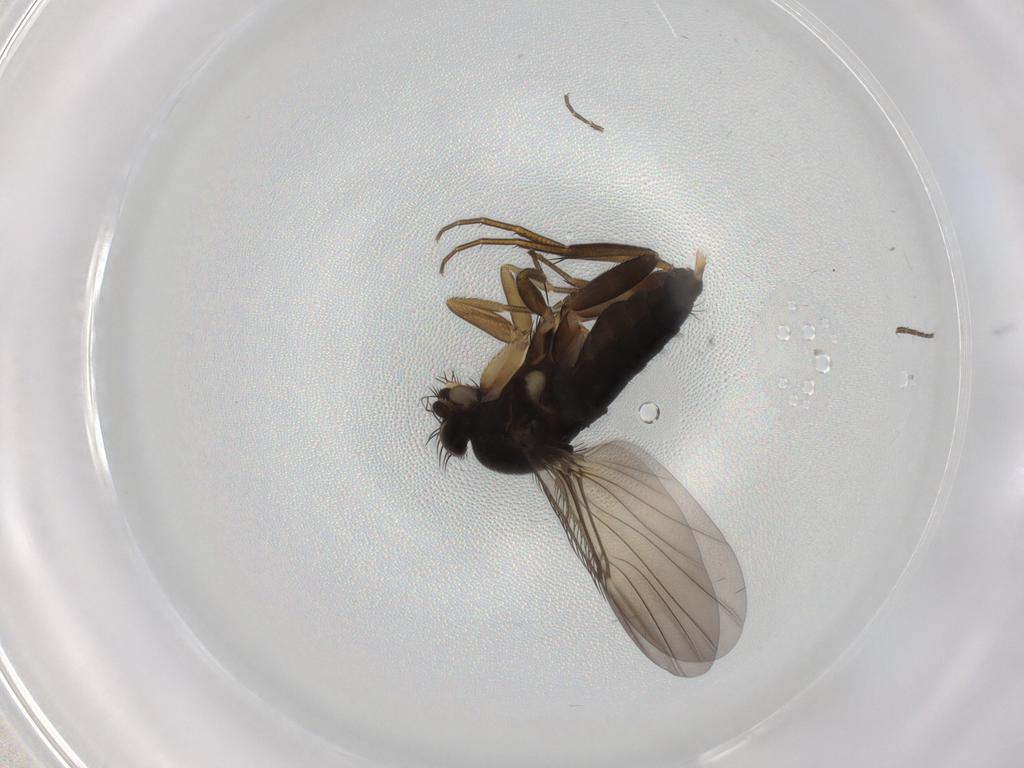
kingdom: Animalia
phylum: Arthropoda
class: Insecta
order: Diptera
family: Phoridae
